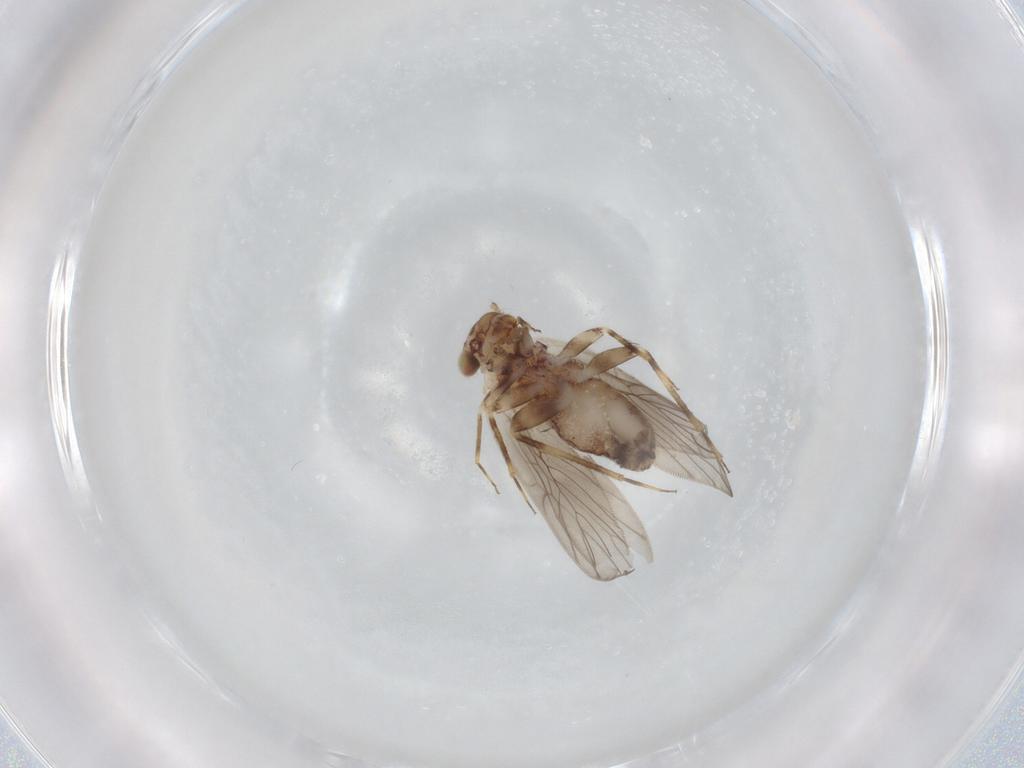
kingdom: Animalia
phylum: Arthropoda
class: Insecta
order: Psocodea
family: Lepidopsocidae
